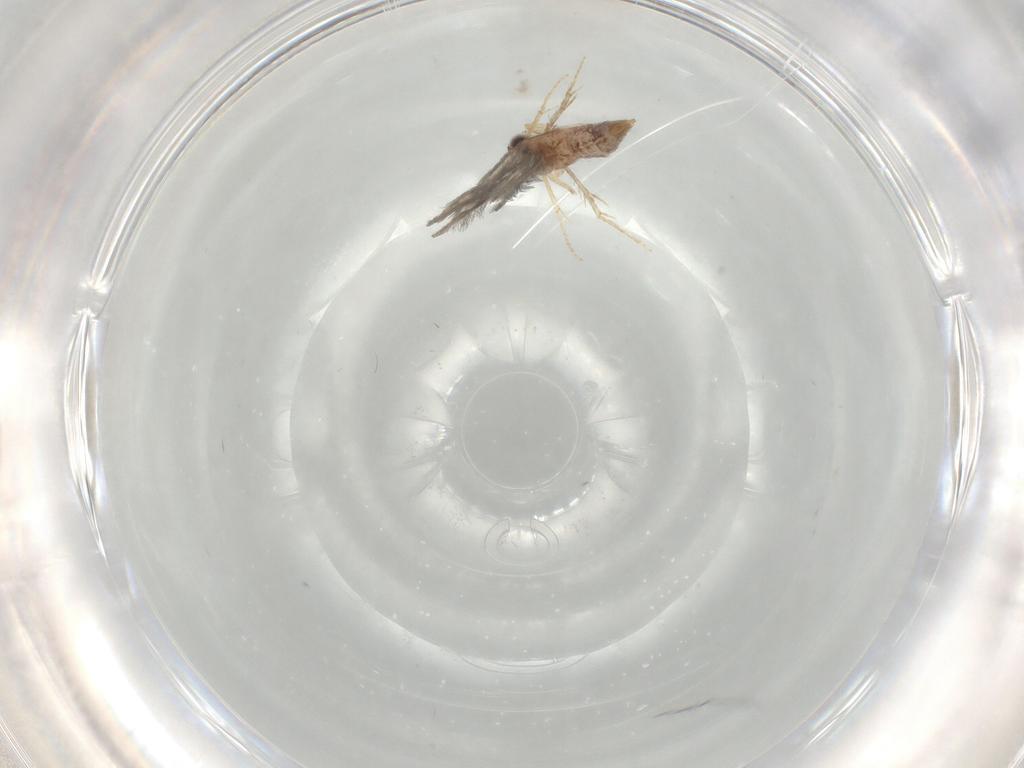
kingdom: Animalia
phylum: Arthropoda
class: Insecta
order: Trichoptera
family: Hydroptilidae
